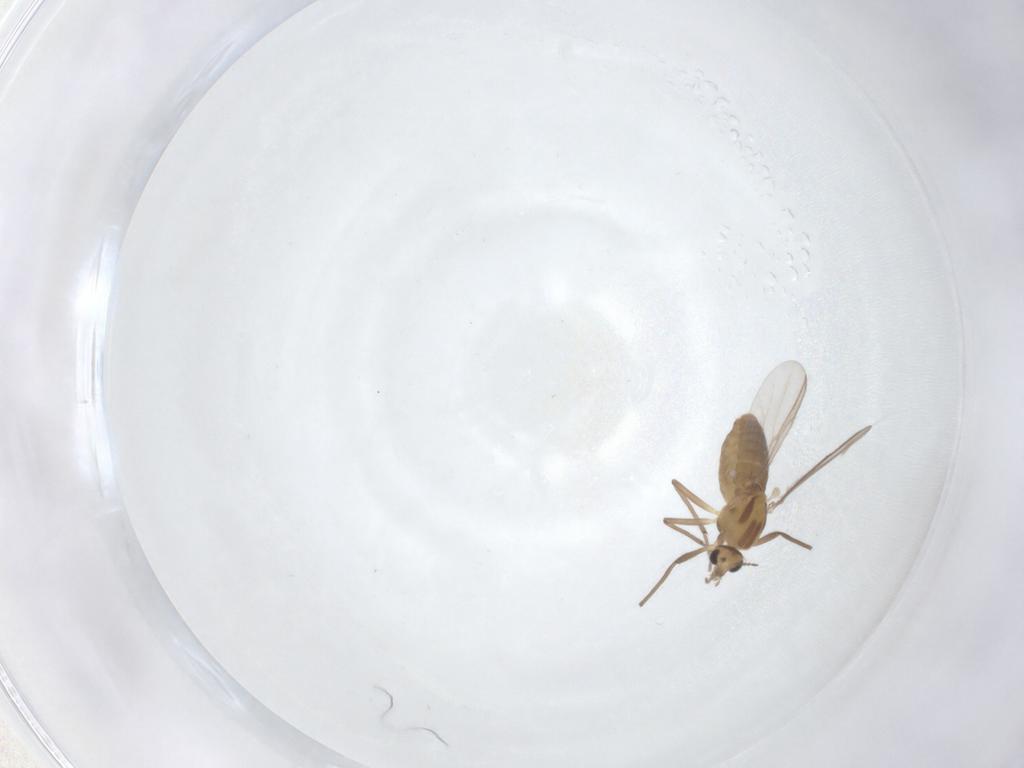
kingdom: Animalia
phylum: Arthropoda
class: Insecta
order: Diptera
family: Chironomidae
